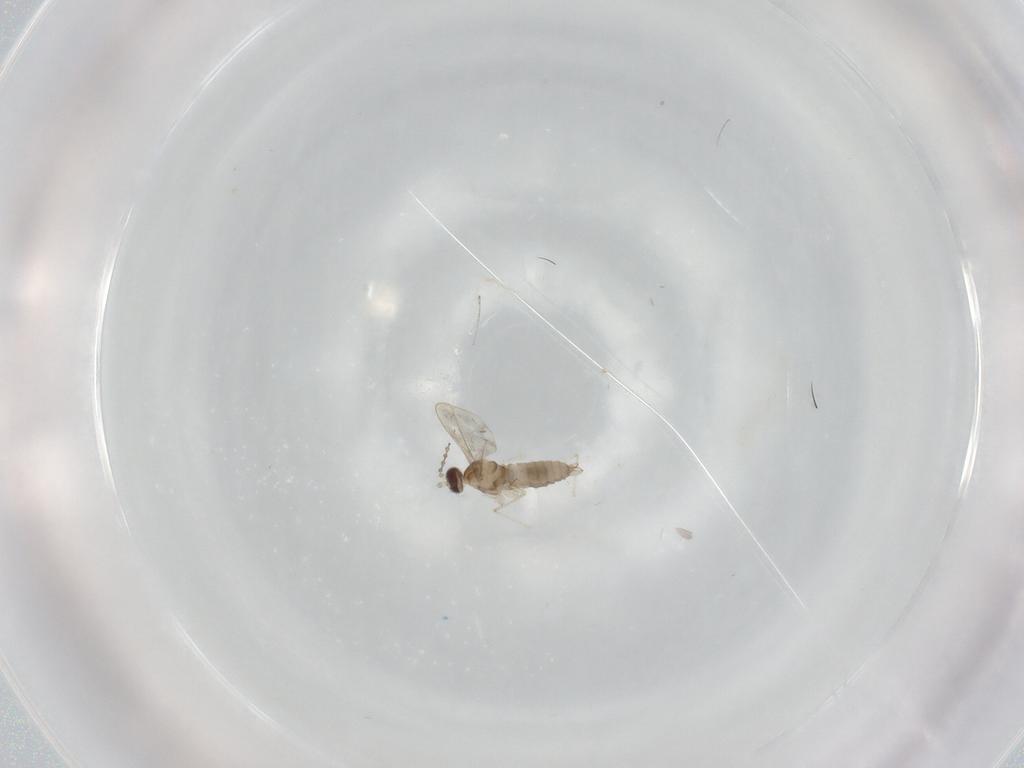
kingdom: Animalia
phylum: Arthropoda
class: Insecta
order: Diptera
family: Cecidomyiidae
